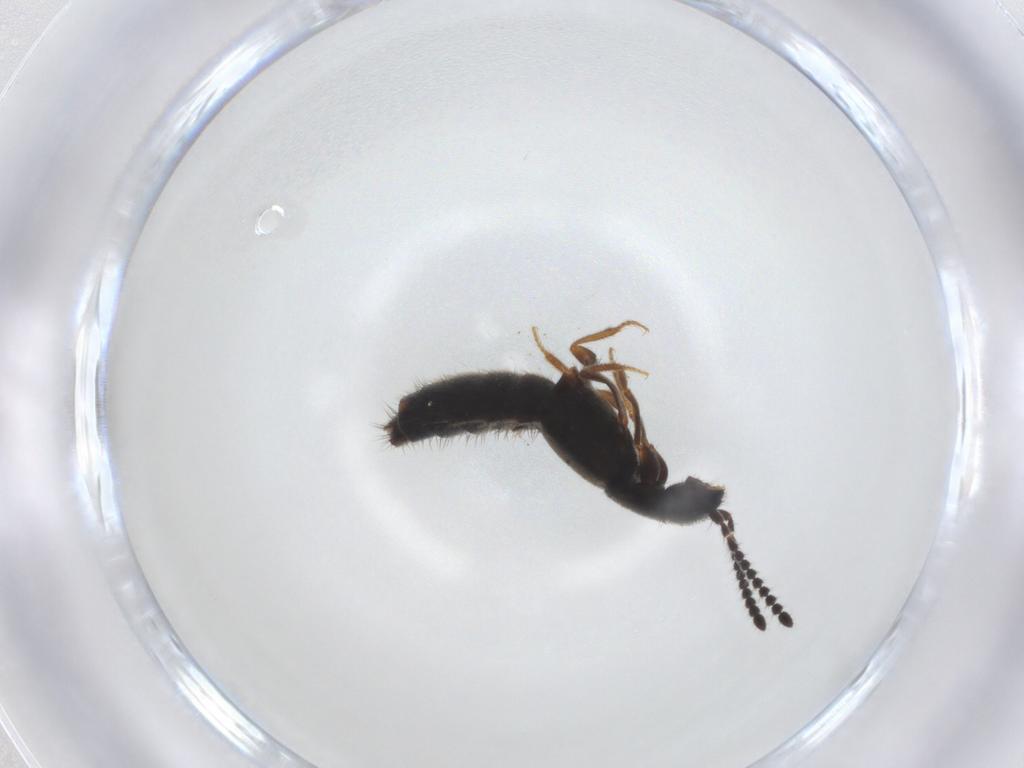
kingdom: Animalia
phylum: Arthropoda
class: Insecta
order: Coleoptera
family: Staphylinidae
